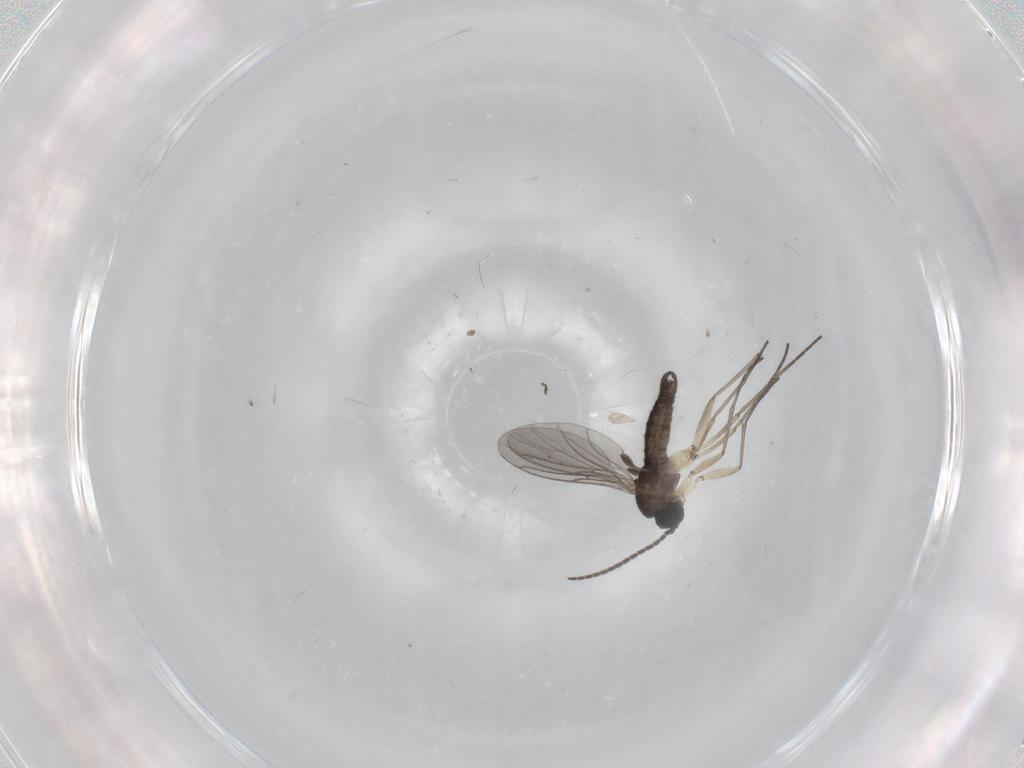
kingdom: Animalia
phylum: Arthropoda
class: Insecta
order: Diptera
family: Sciaridae
